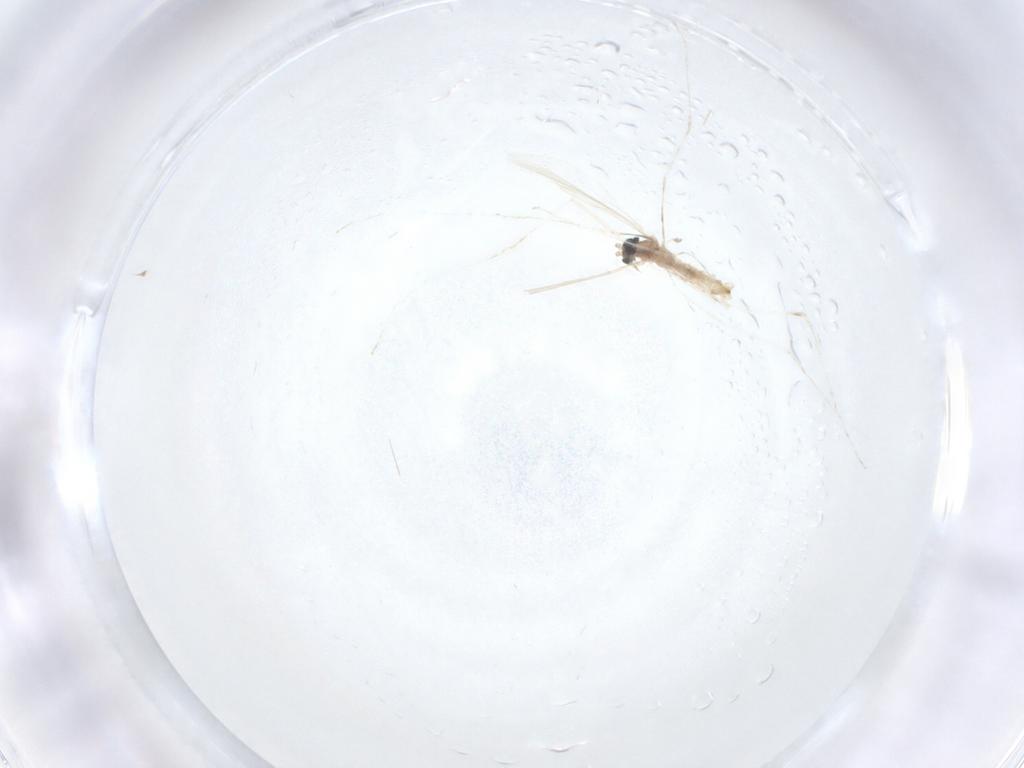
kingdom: Animalia
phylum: Arthropoda
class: Insecta
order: Diptera
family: Cecidomyiidae
